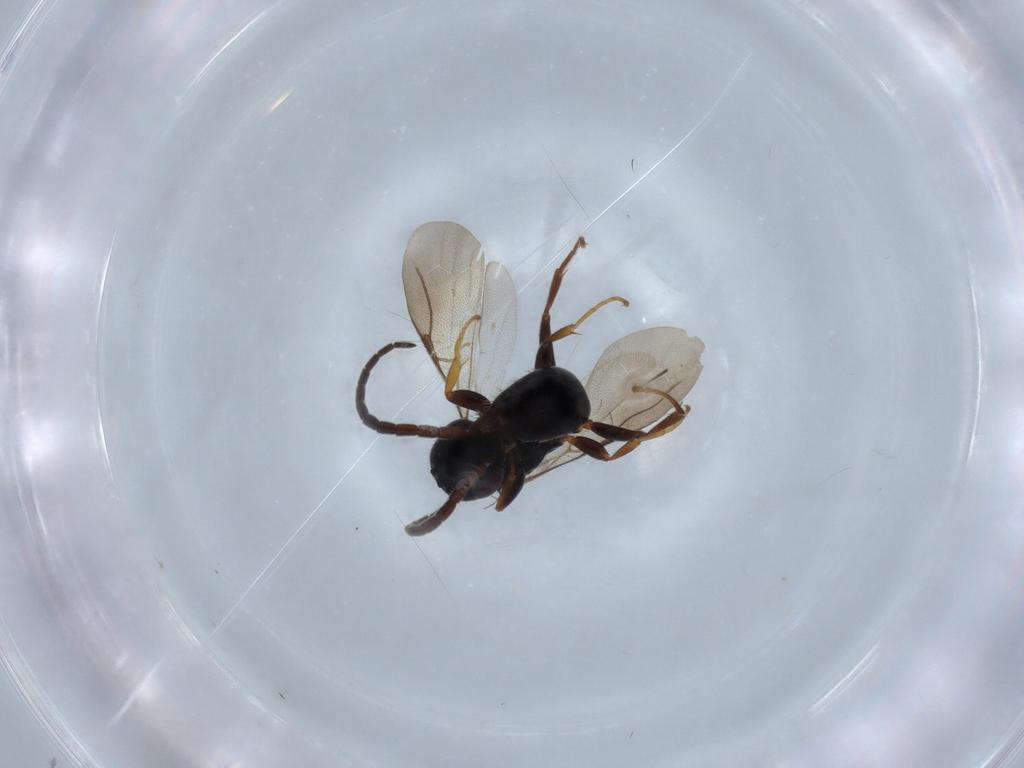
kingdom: Animalia
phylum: Arthropoda
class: Insecta
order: Hymenoptera
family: Bethylidae
